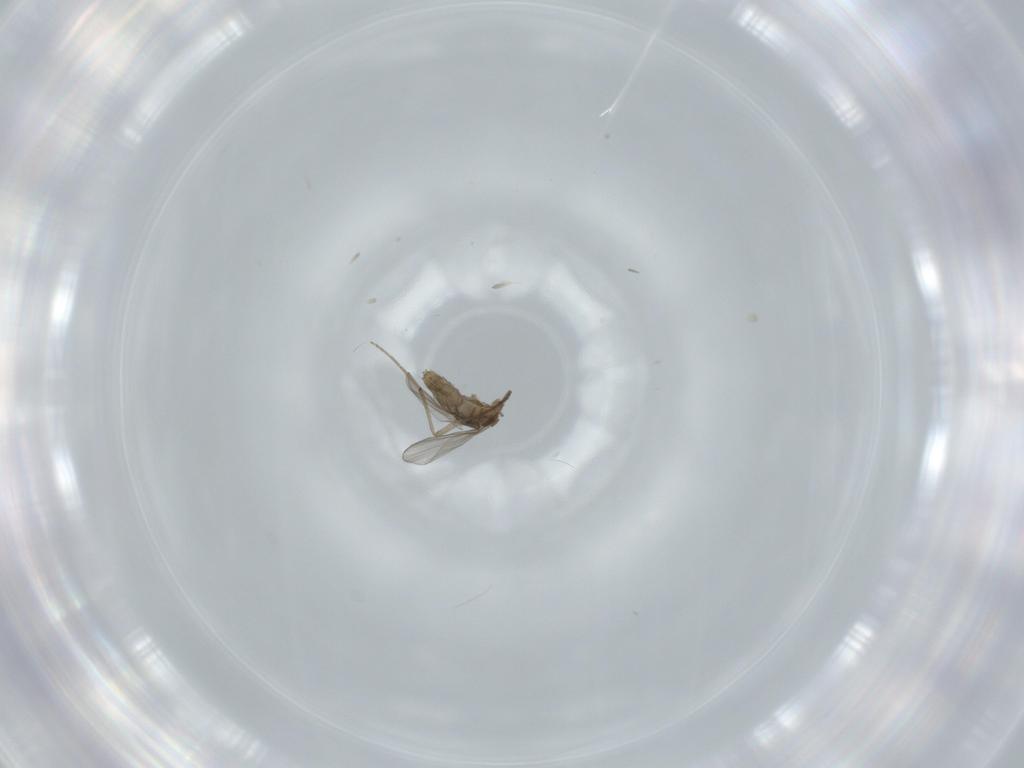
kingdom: Animalia
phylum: Arthropoda
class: Insecta
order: Diptera
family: Chironomidae
